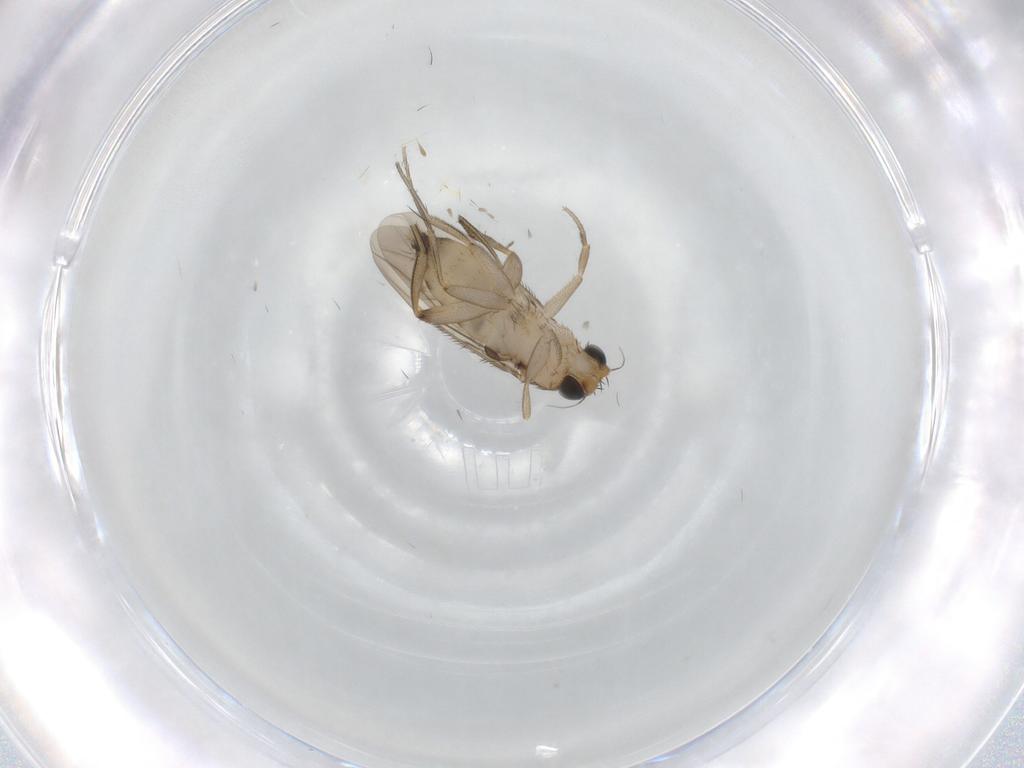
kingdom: Animalia
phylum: Arthropoda
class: Insecta
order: Diptera
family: Phoridae
